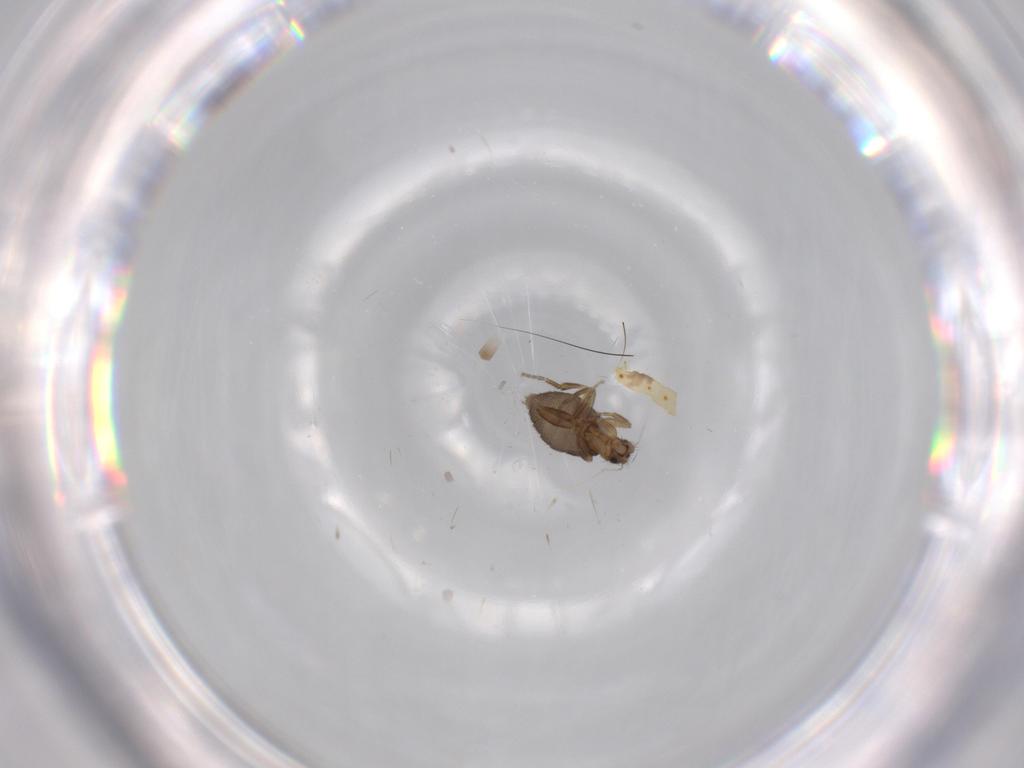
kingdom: Animalia
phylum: Arthropoda
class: Insecta
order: Diptera
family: Phoridae
